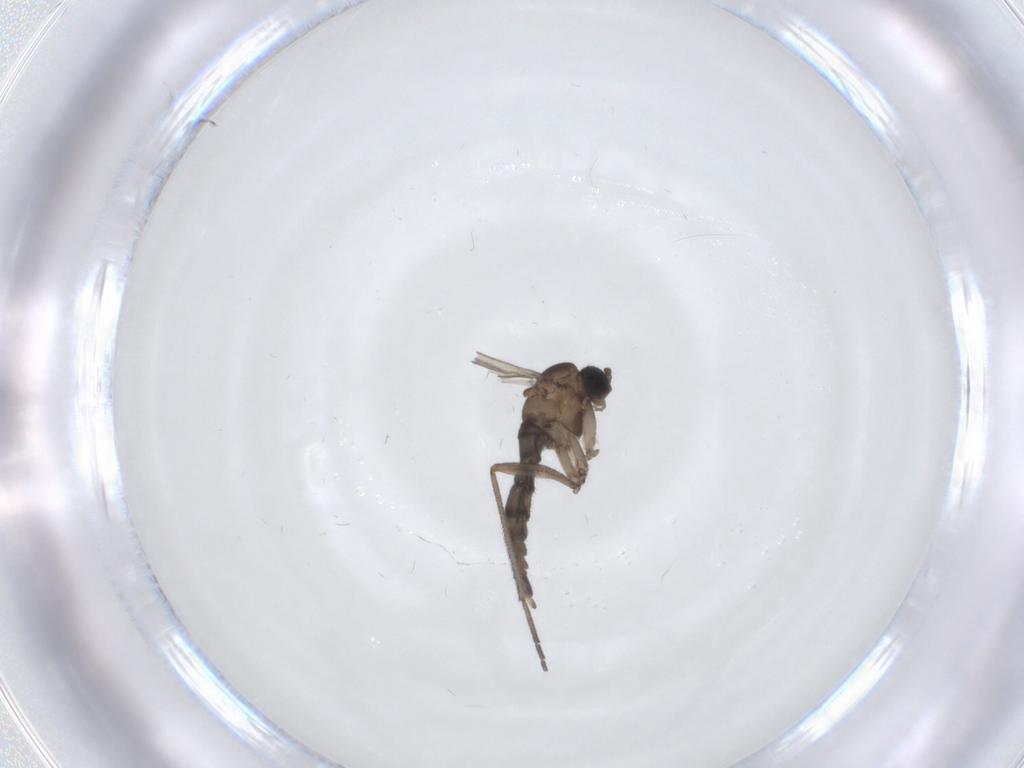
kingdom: Animalia
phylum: Arthropoda
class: Insecta
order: Diptera
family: Sciaridae
